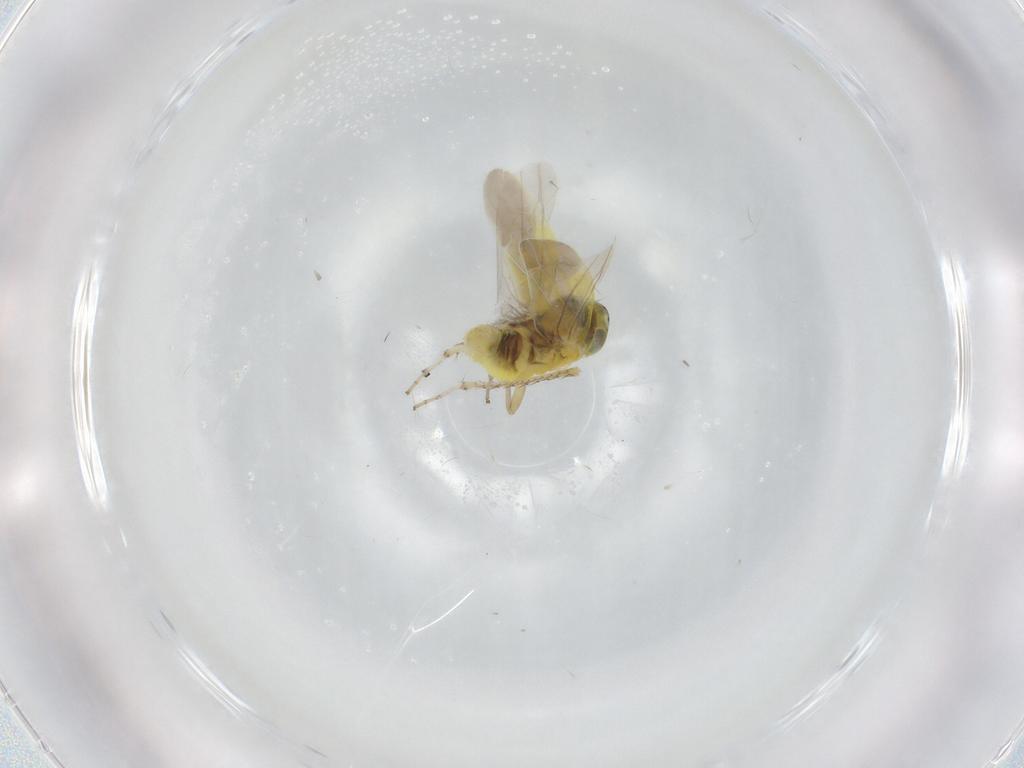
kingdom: Animalia
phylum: Arthropoda
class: Insecta
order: Hemiptera
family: Cicadellidae
